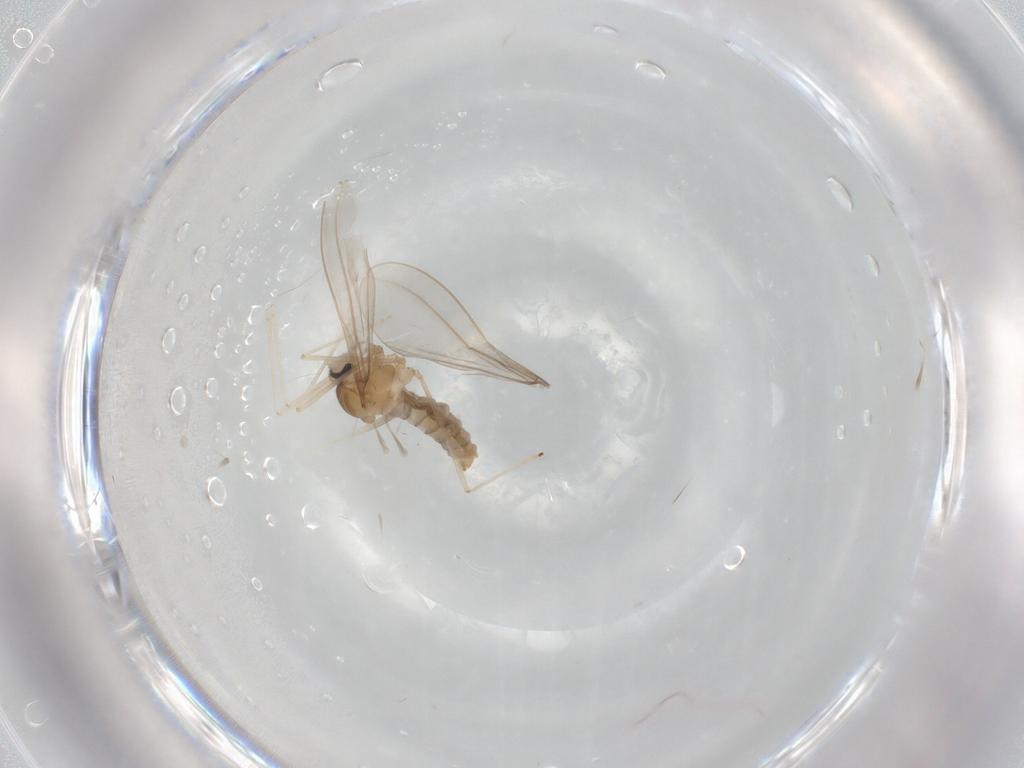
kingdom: Animalia
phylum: Arthropoda
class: Insecta
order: Diptera
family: Cecidomyiidae
